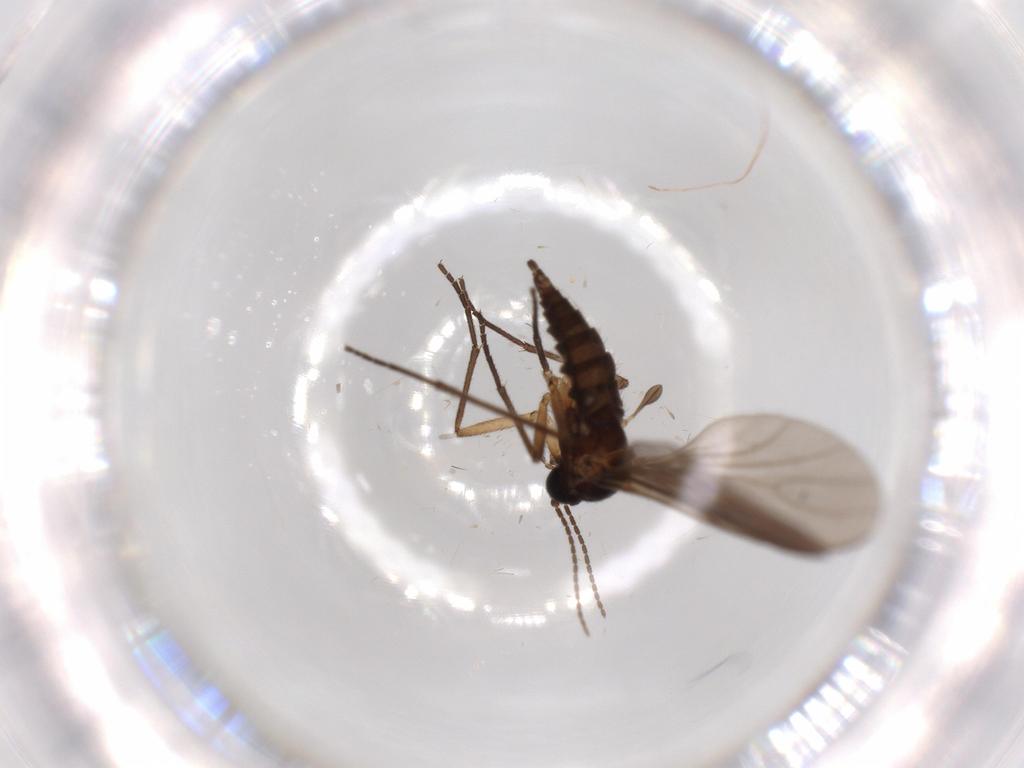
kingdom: Animalia
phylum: Arthropoda
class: Insecta
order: Diptera
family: Sciaridae
